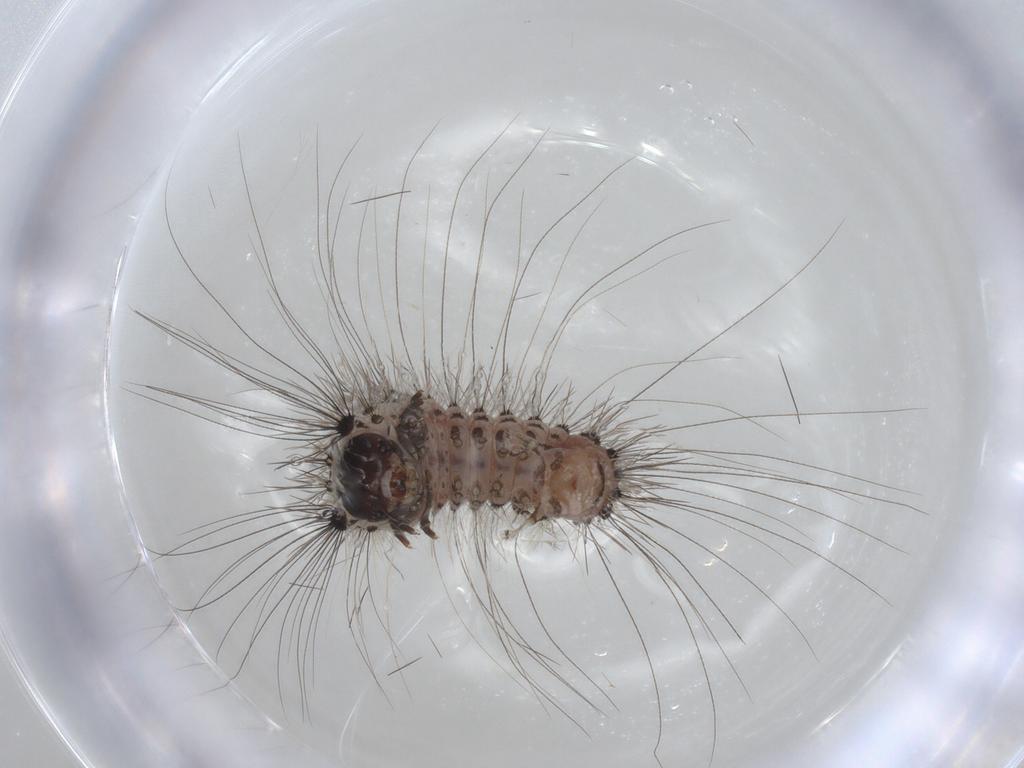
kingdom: Animalia
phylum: Arthropoda
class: Insecta
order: Lepidoptera
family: Erebidae
